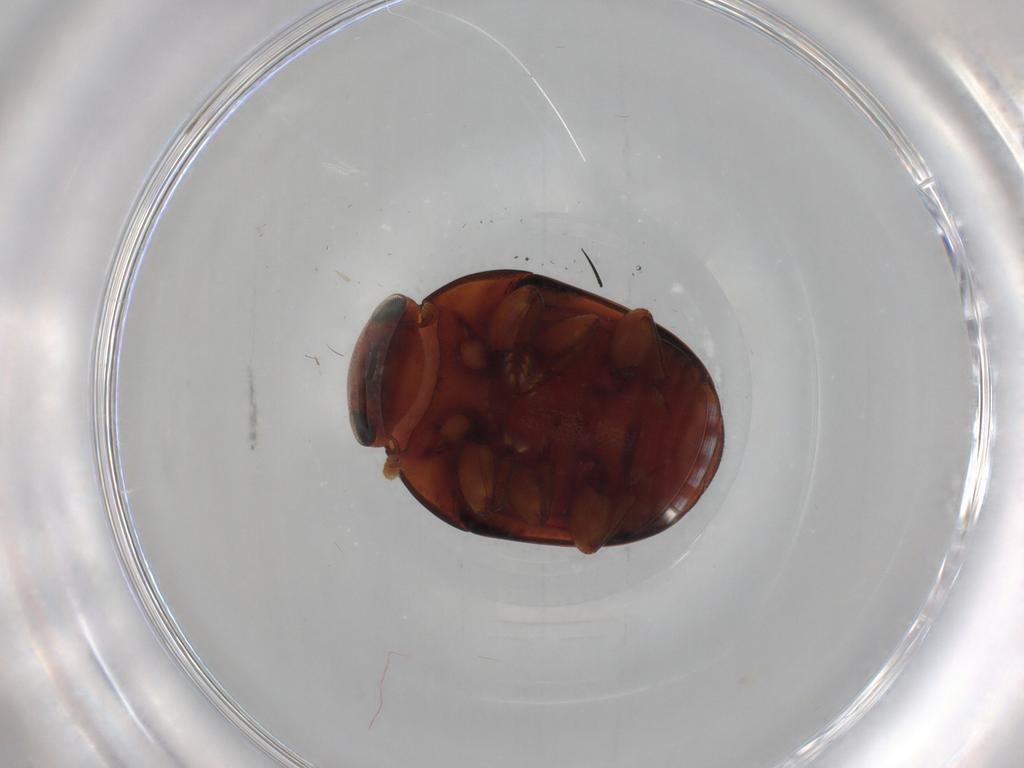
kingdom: Animalia
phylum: Arthropoda
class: Insecta
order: Coleoptera
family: Nitidulidae
